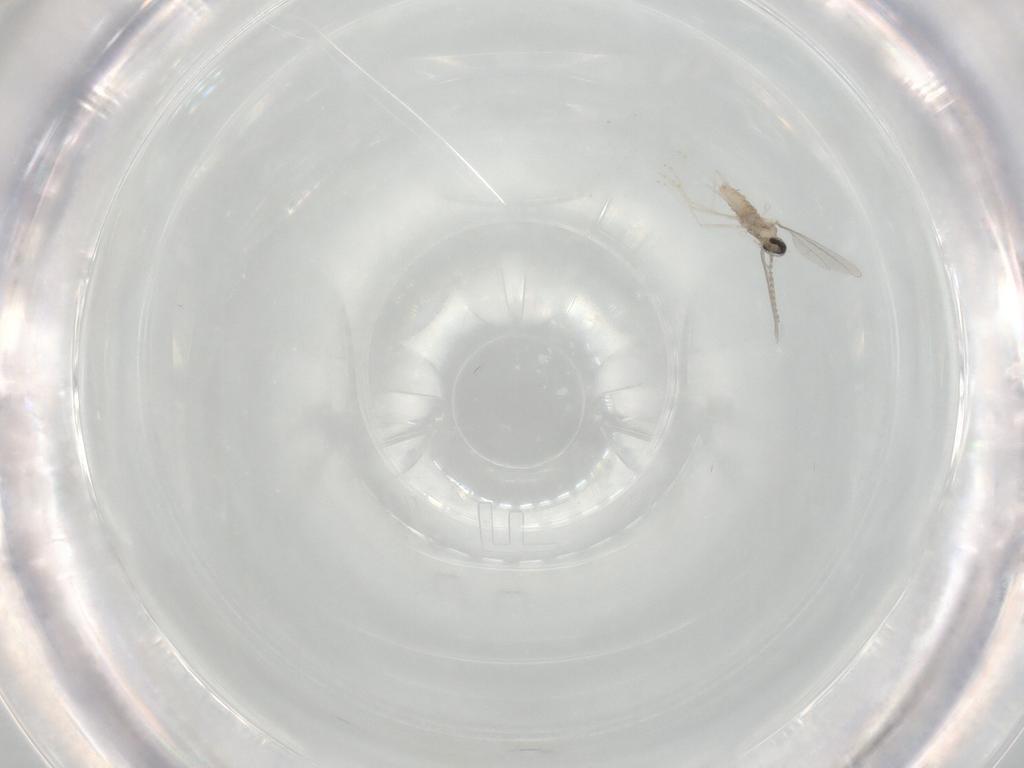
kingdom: Animalia
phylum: Arthropoda
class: Insecta
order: Diptera
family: Cecidomyiidae
